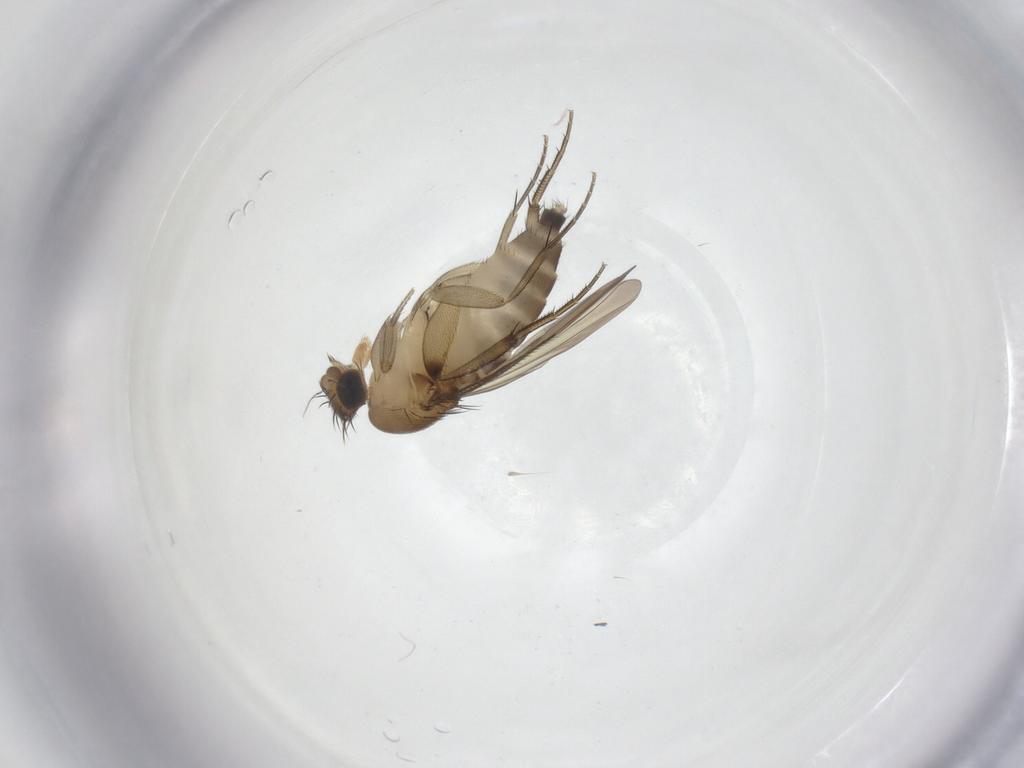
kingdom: Animalia
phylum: Arthropoda
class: Insecta
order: Diptera
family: Phoridae
